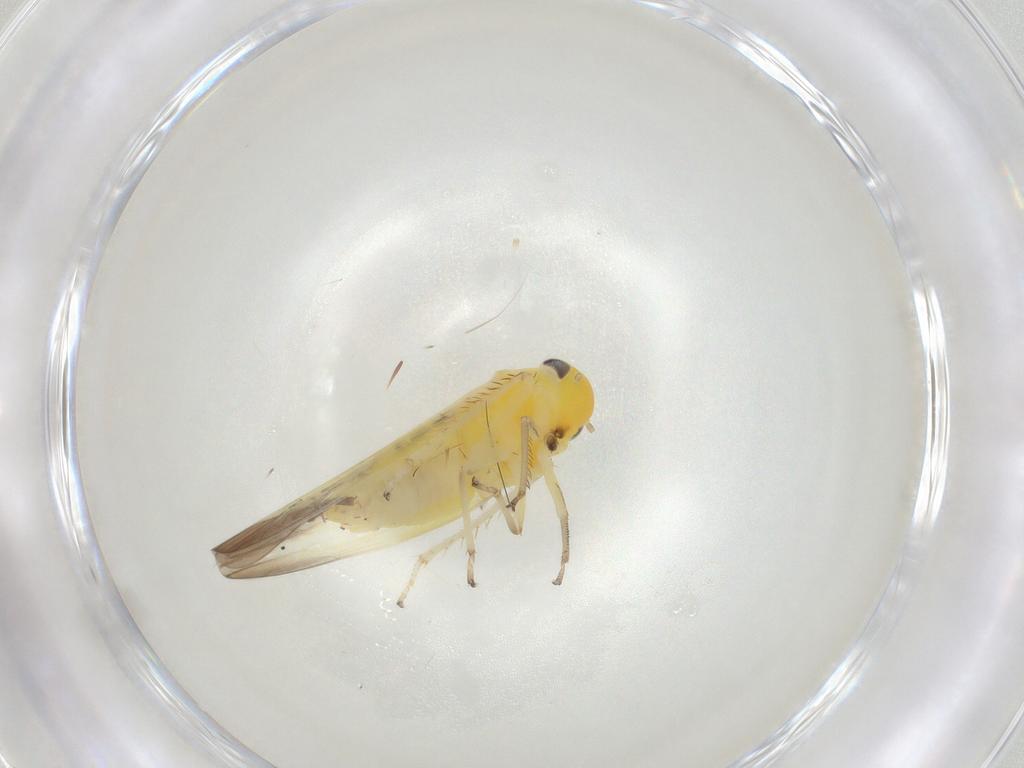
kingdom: Animalia
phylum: Arthropoda
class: Insecta
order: Hemiptera
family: Cicadellidae
